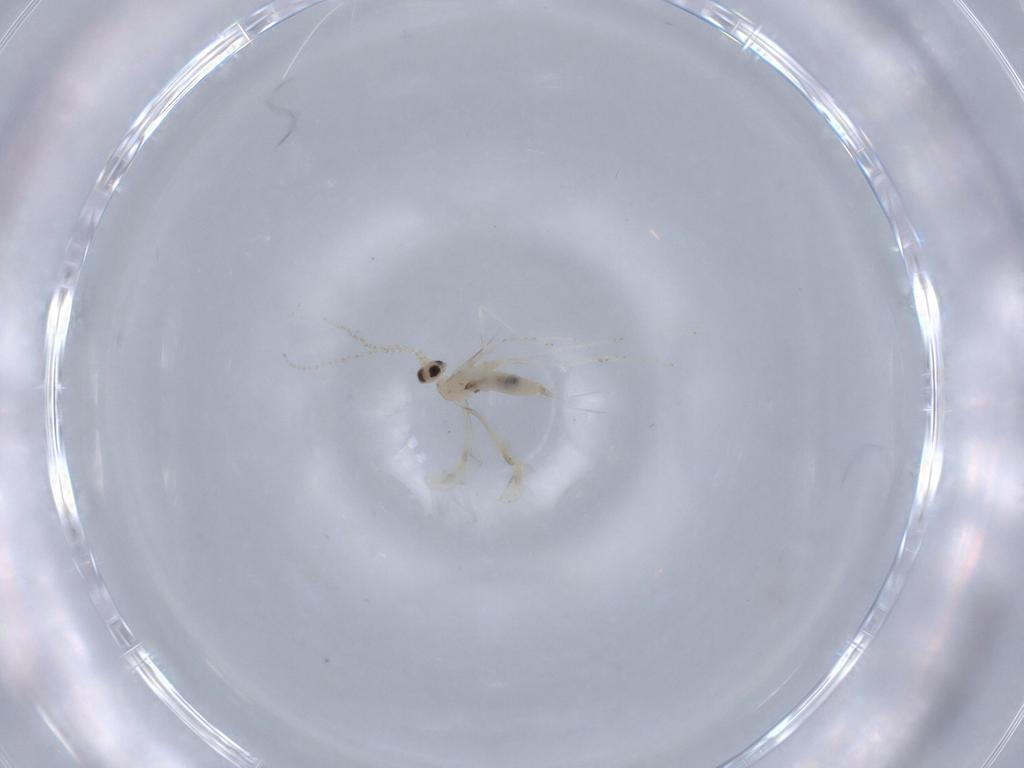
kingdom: Animalia
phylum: Arthropoda
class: Insecta
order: Diptera
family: Cecidomyiidae
